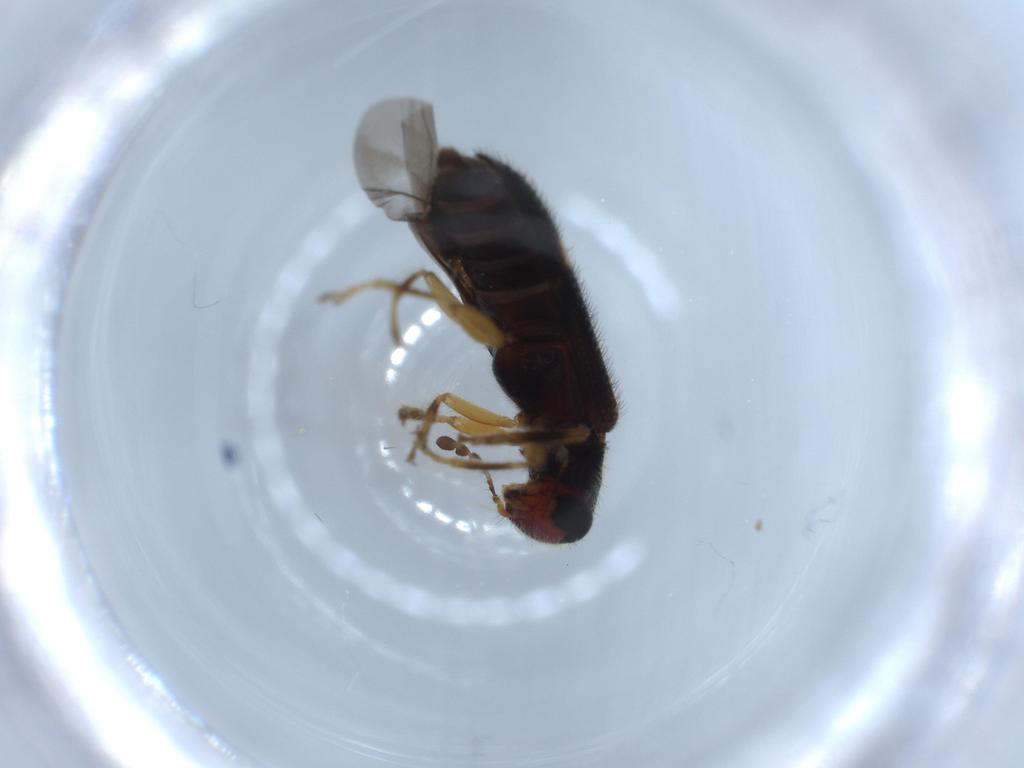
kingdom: Animalia
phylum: Arthropoda
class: Insecta
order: Coleoptera
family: Cleridae
